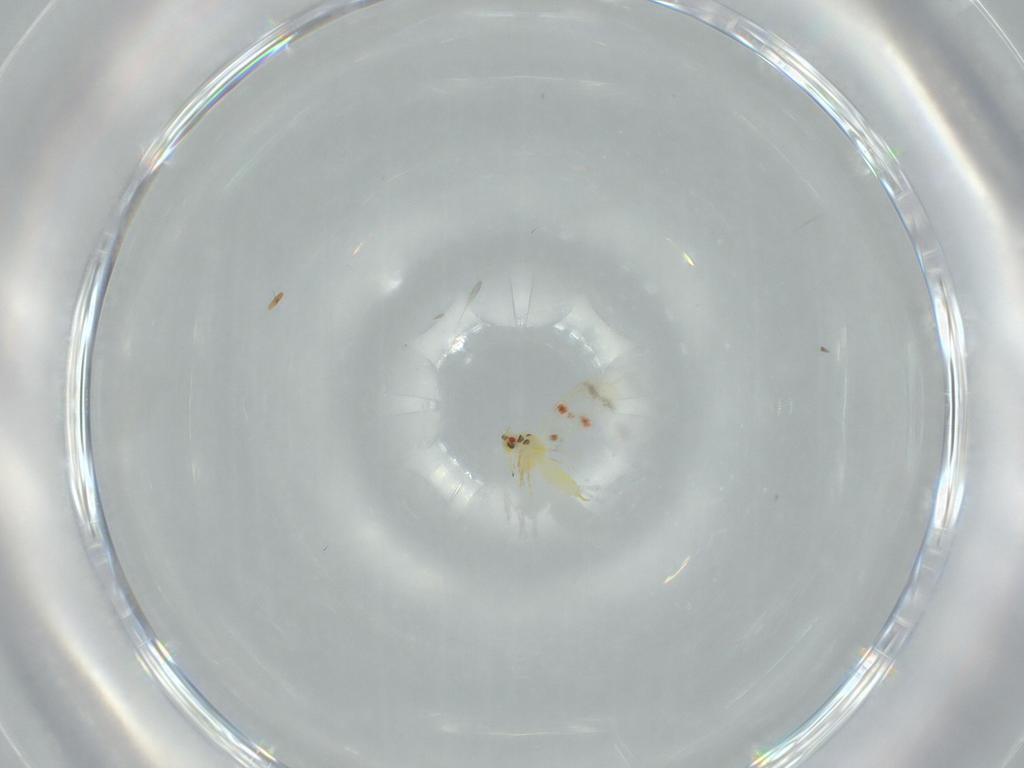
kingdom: Animalia
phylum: Arthropoda
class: Insecta
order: Hemiptera
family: Aleyrodidae
